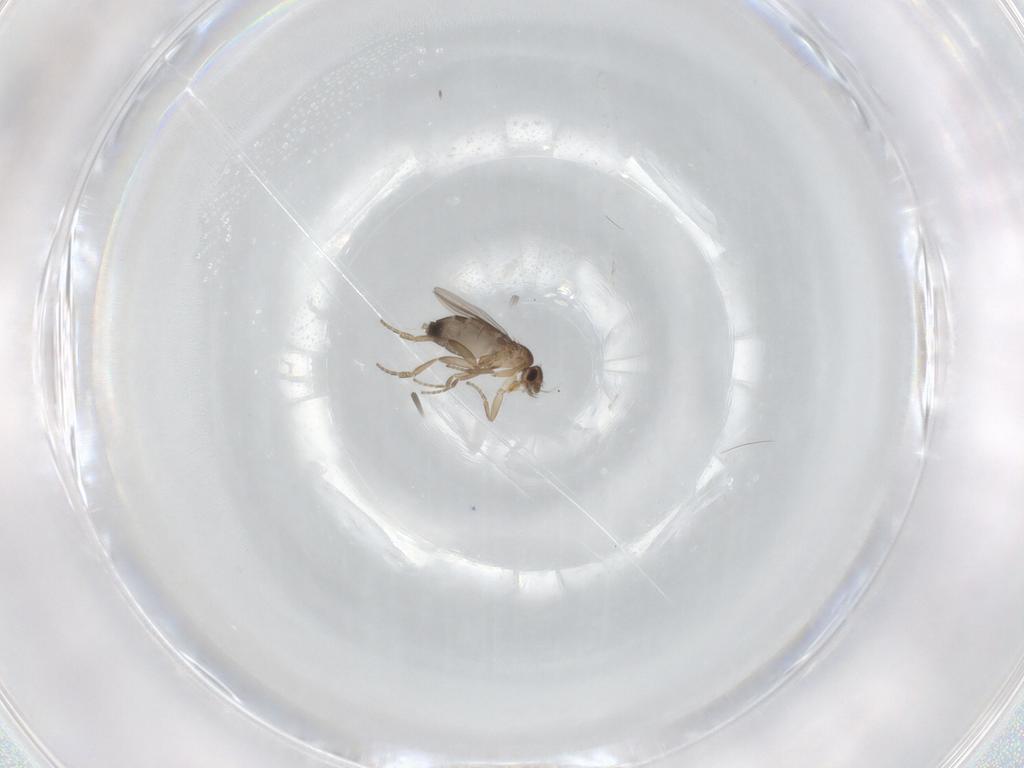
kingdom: Animalia
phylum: Arthropoda
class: Insecta
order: Diptera
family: Phoridae
